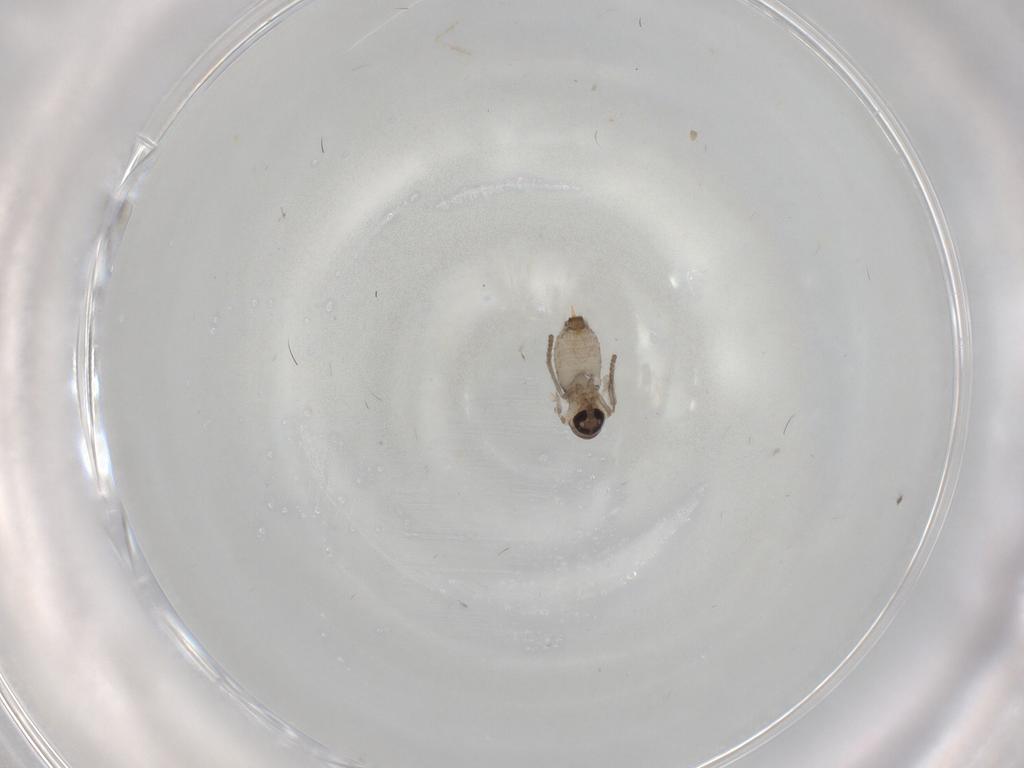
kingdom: Animalia
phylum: Arthropoda
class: Insecta
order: Diptera
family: Psychodidae
